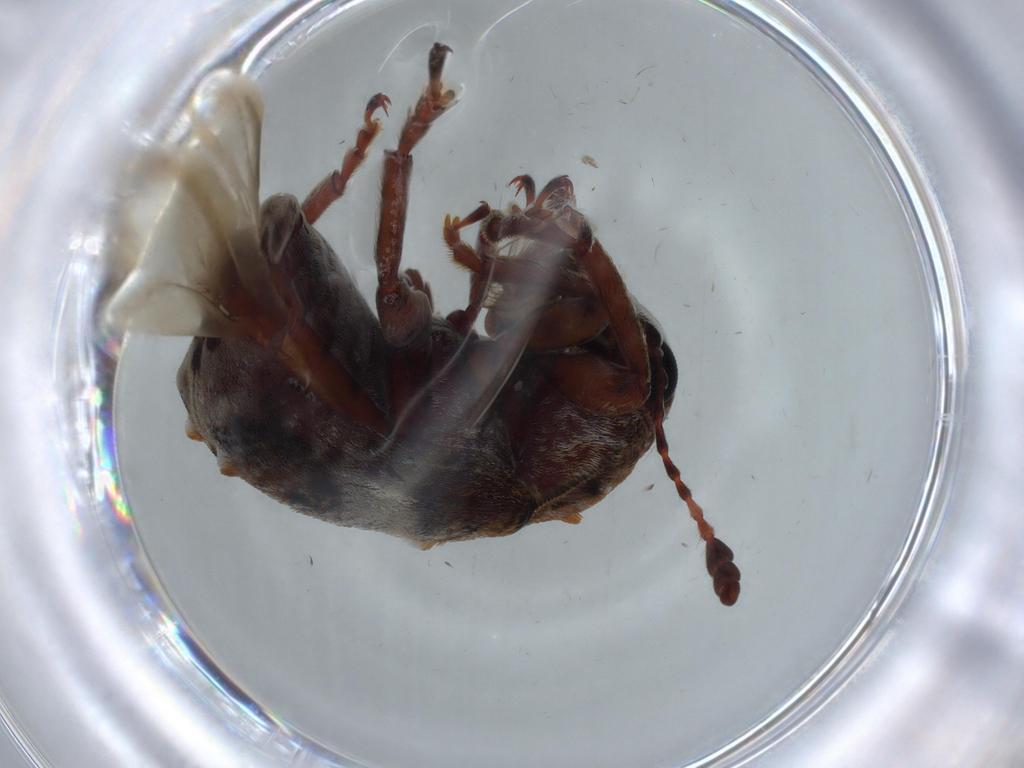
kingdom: Animalia
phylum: Arthropoda
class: Insecta
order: Coleoptera
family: Anthribidae
